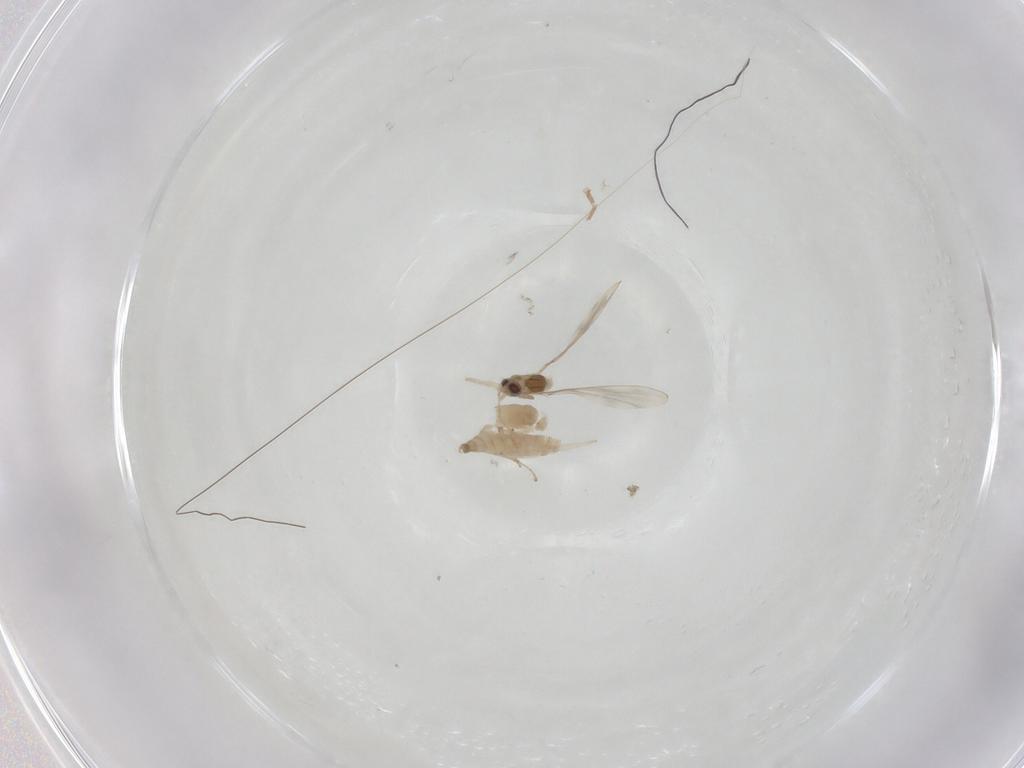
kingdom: Animalia
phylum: Arthropoda
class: Insecta
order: Diptera
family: Cecidomyiidae
